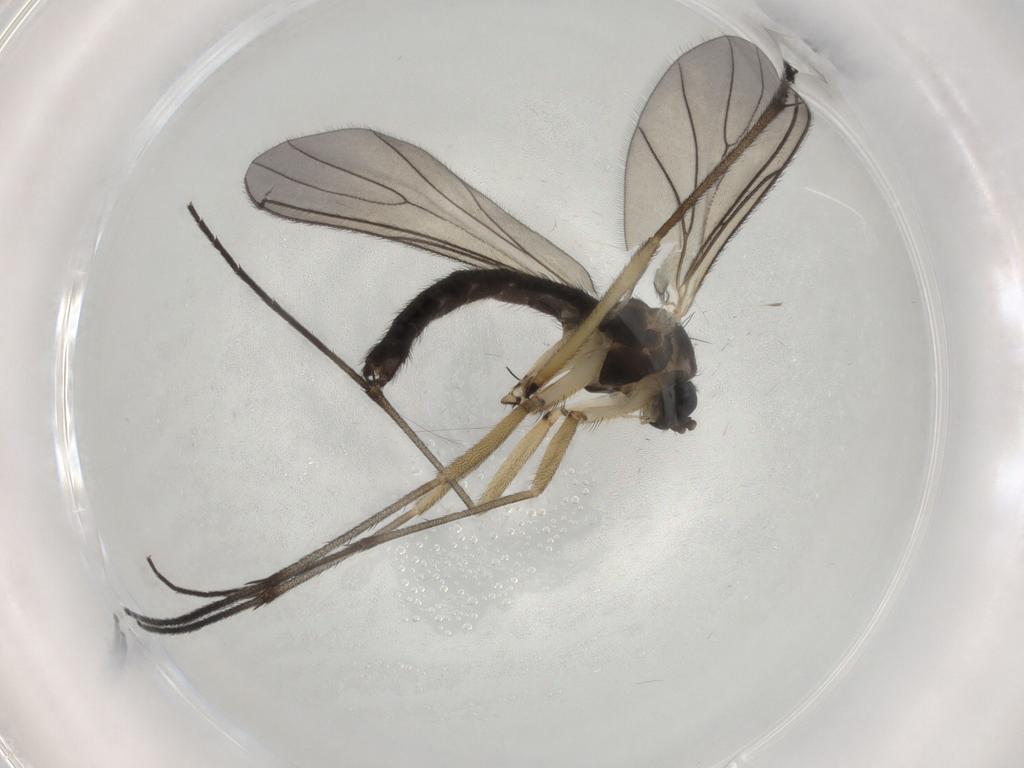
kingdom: Animalia
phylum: Arthropoda
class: Insecta
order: Diptera
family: Sciaridae
